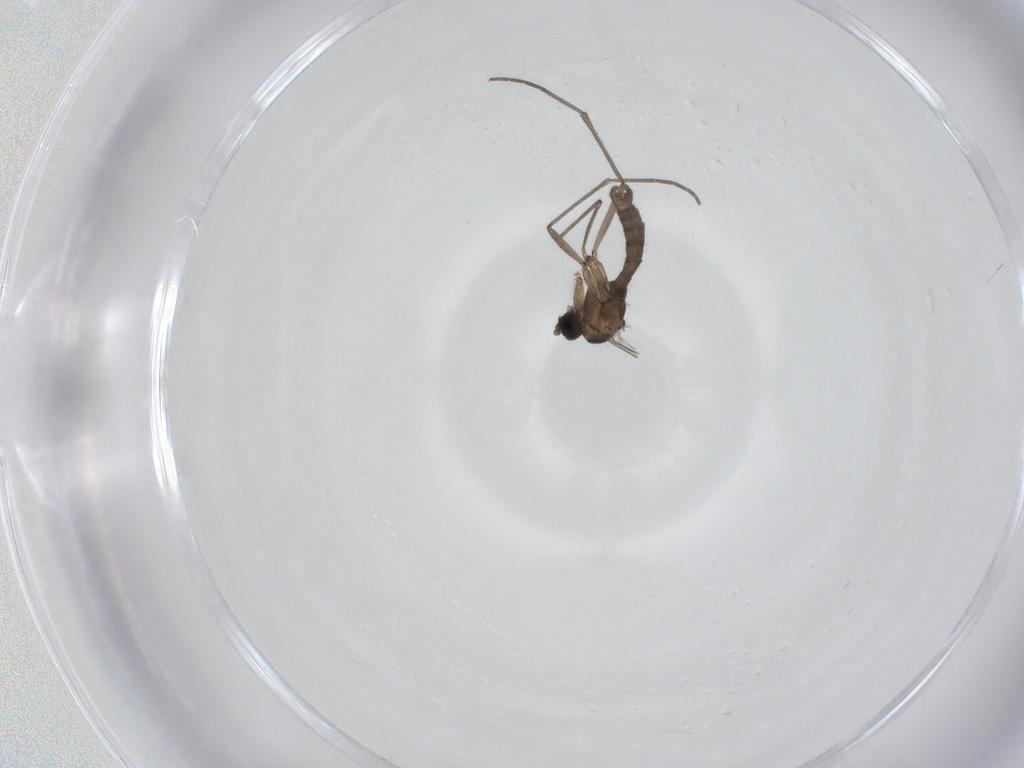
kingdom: Animalia
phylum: Arthropoda
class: Insecta
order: Diptera
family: Sciaridae
